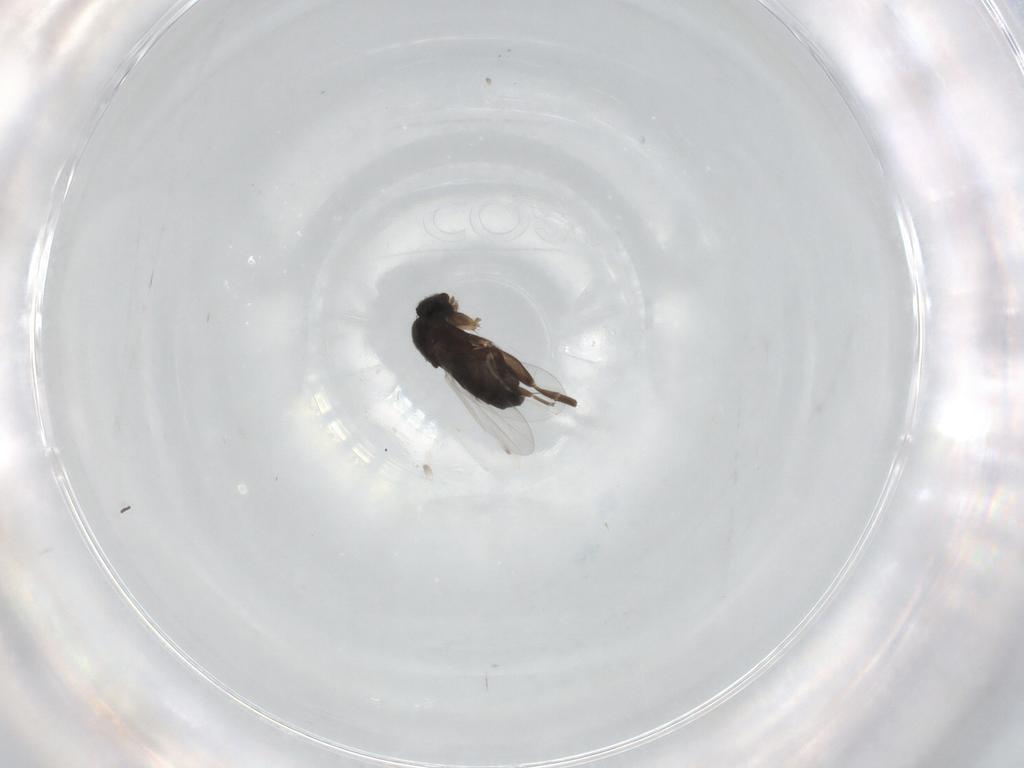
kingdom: Animalia
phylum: Arthropoda
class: Insecta
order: Diptera
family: Phoridae
